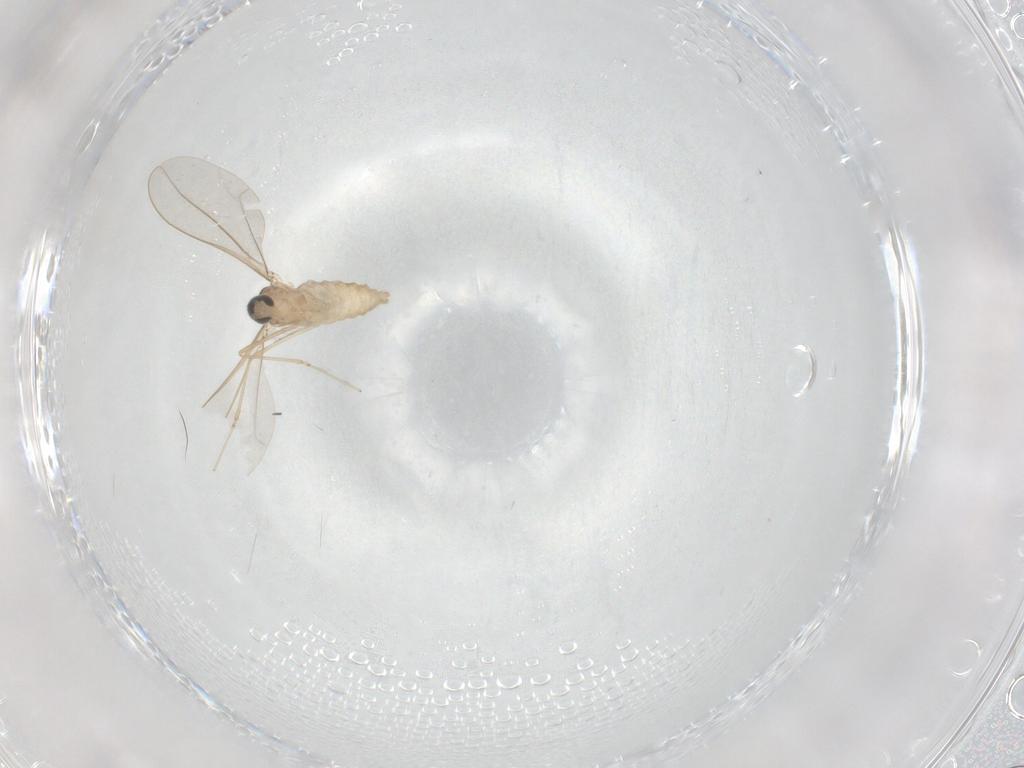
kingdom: Animalia
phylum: Arthropoda
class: Insecta
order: Diptera
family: Cecidomyiidae
